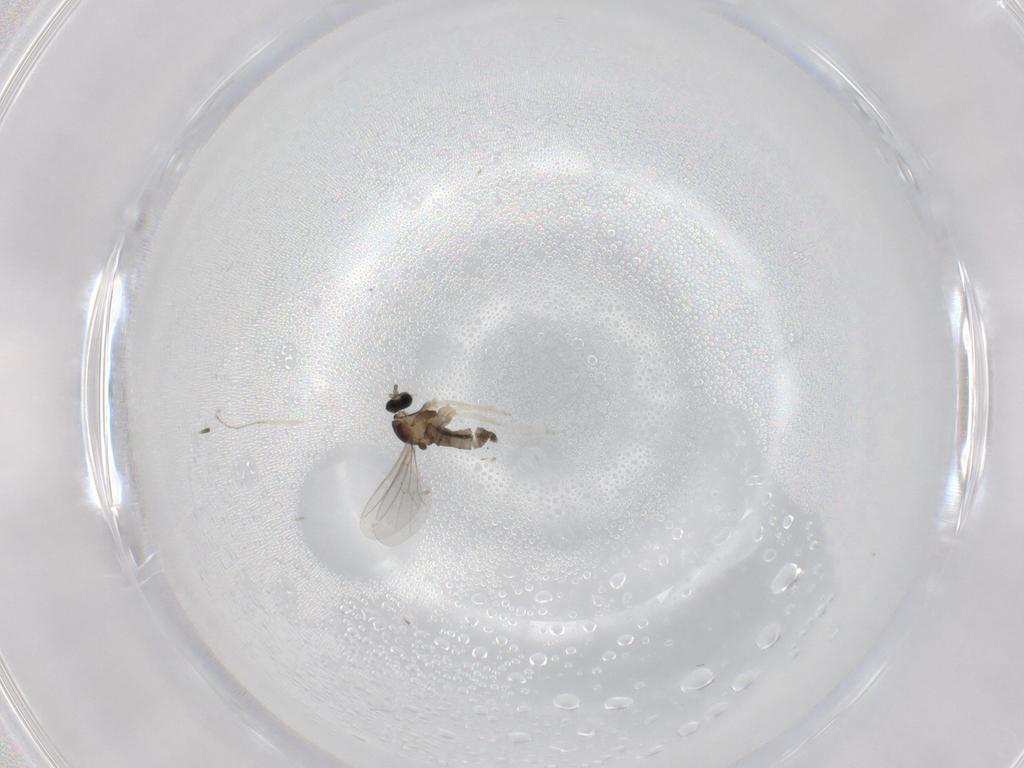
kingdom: Animalia
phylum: Arthropoda
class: Insecta
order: Diptera
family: Cecidomyiidae
